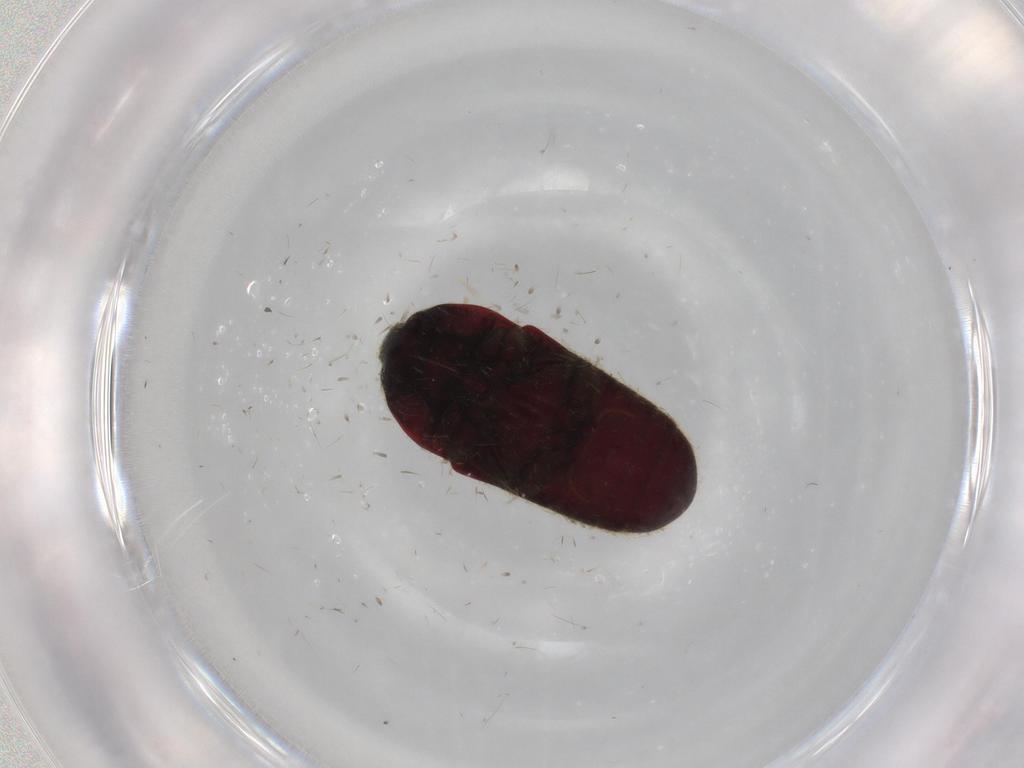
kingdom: Animalia
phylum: Arthropoda
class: Insecta
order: Coleoptera
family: Throscidae
